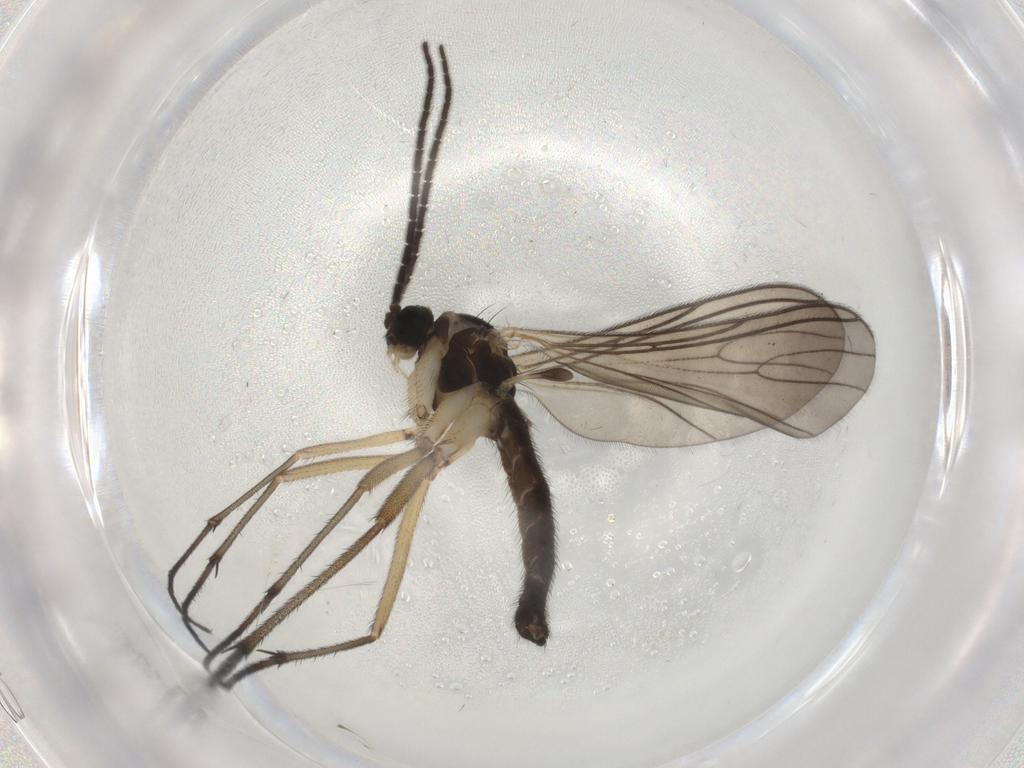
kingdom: Animalia
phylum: Arthropoda
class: Insecta
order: Diptera
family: Sciaridae
